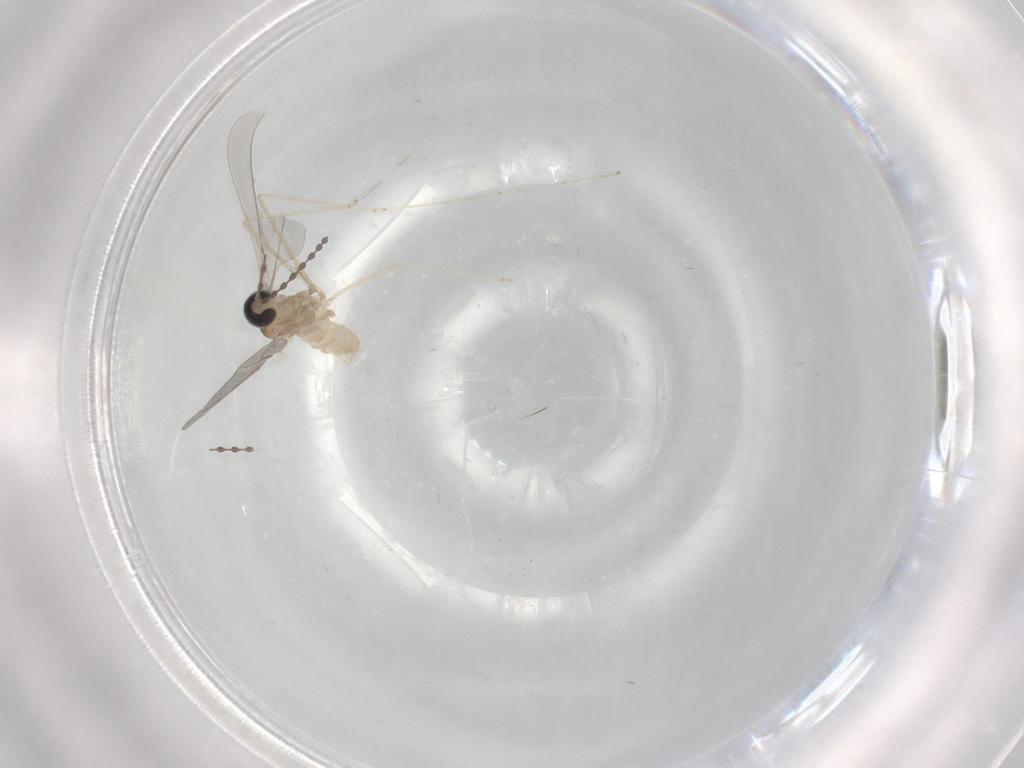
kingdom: Animalia
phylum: Arthropoda
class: Insecta
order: Diptera
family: Cecidomyiidae
